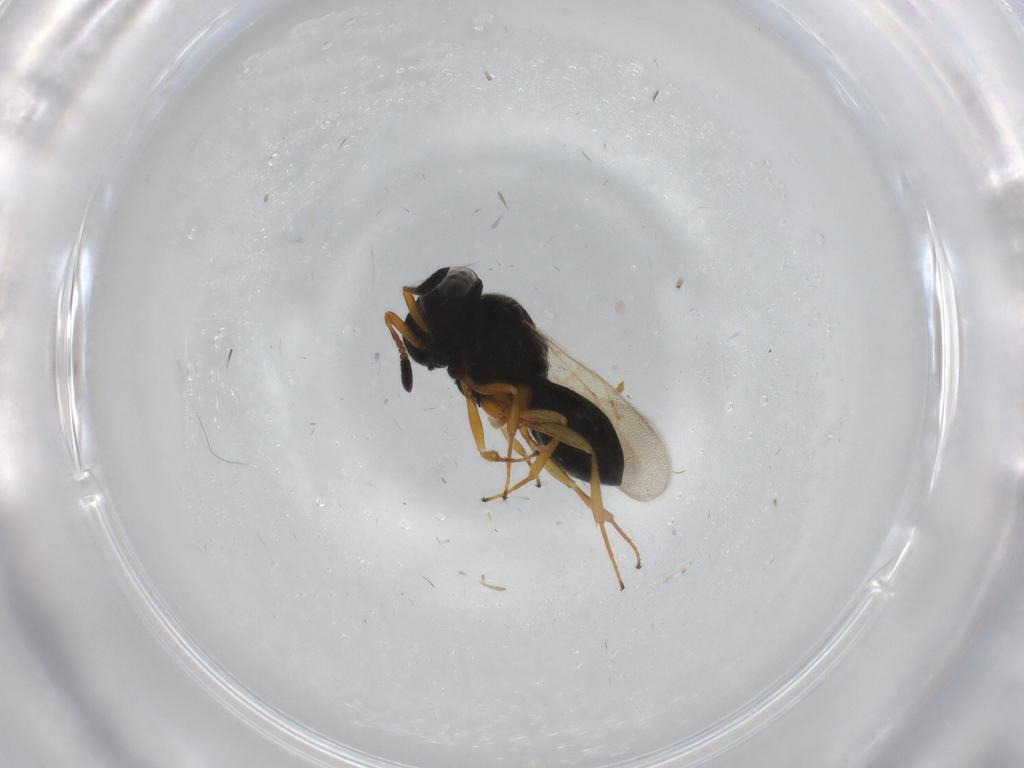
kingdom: Animalia
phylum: Arthropoda
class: Insecta
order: Hymenoptera
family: Scelionidae
